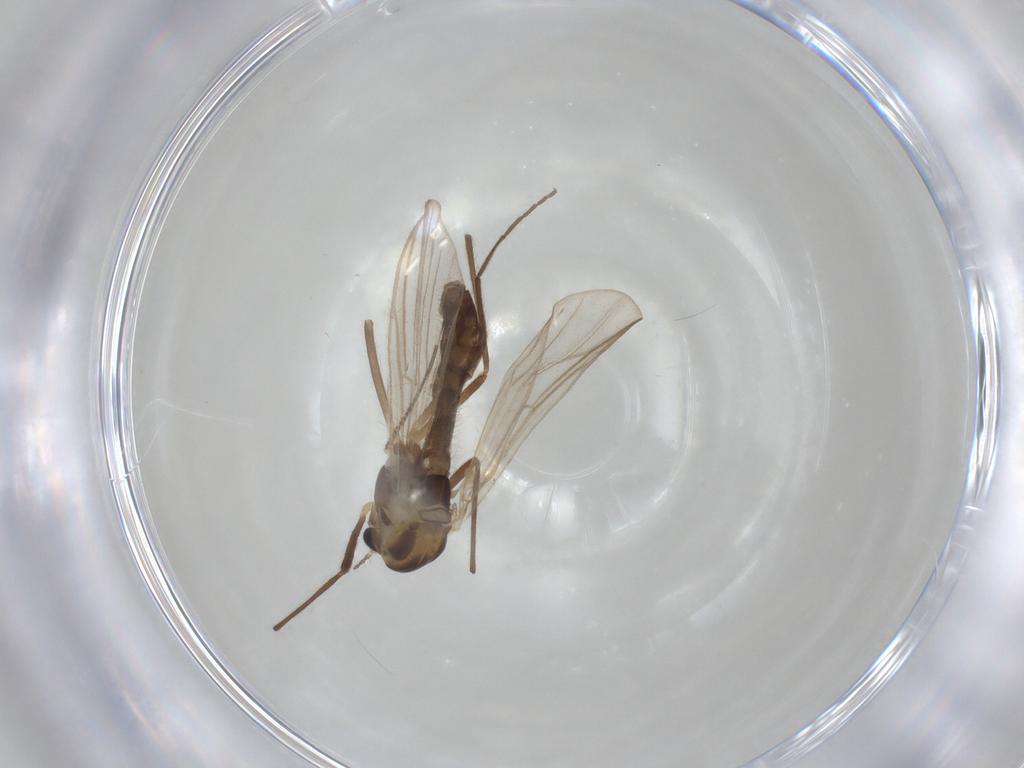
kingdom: Animalia
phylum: Arthropoda
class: Insecta
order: Diptera
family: Chironomidae
